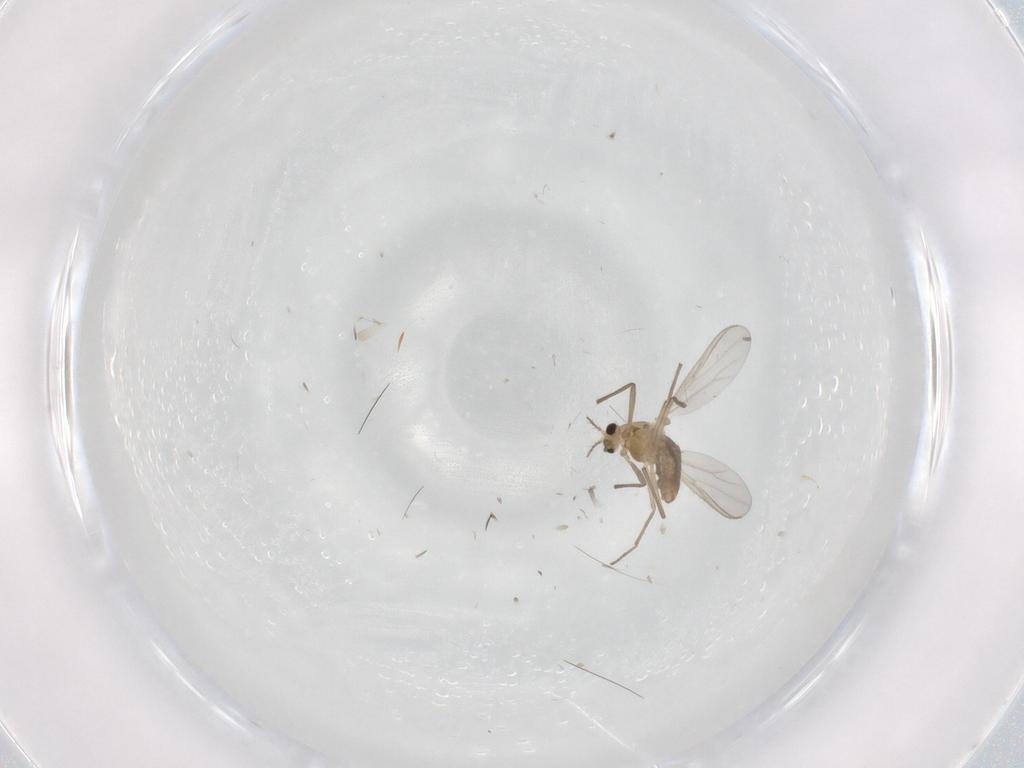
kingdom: Animalia
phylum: Arthropoda
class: Insecta
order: Diptera
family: Chironomidae
